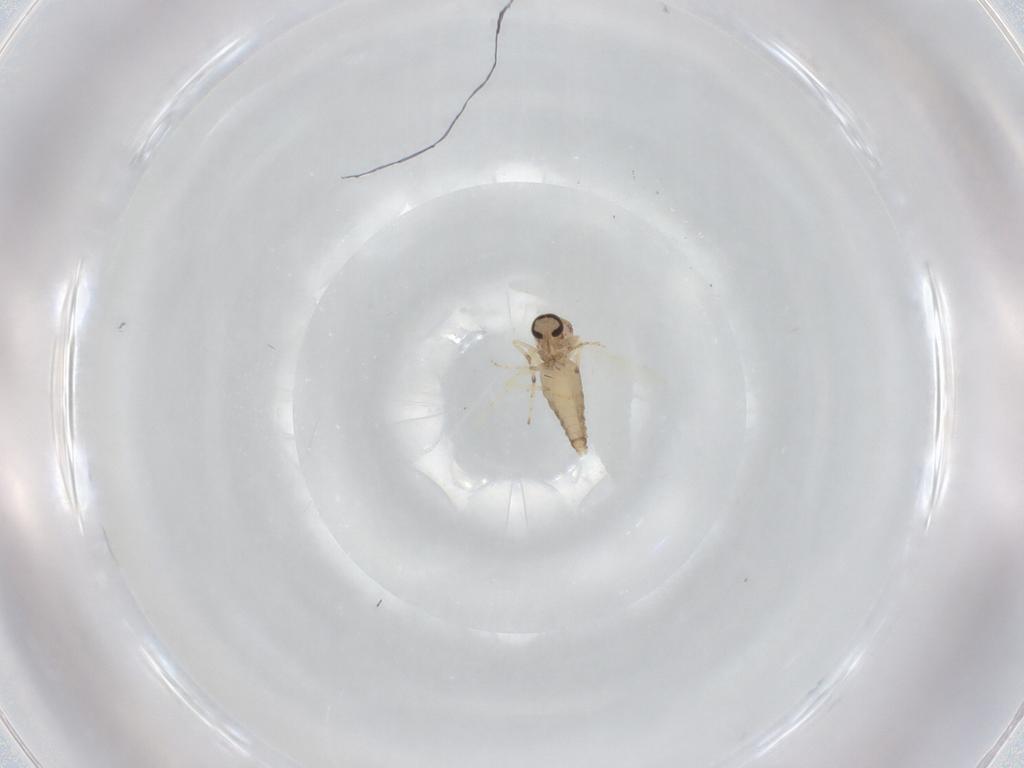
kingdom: Animalia
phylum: Arthropoda
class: Insecta
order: Diptera
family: Ceratopogonidae
